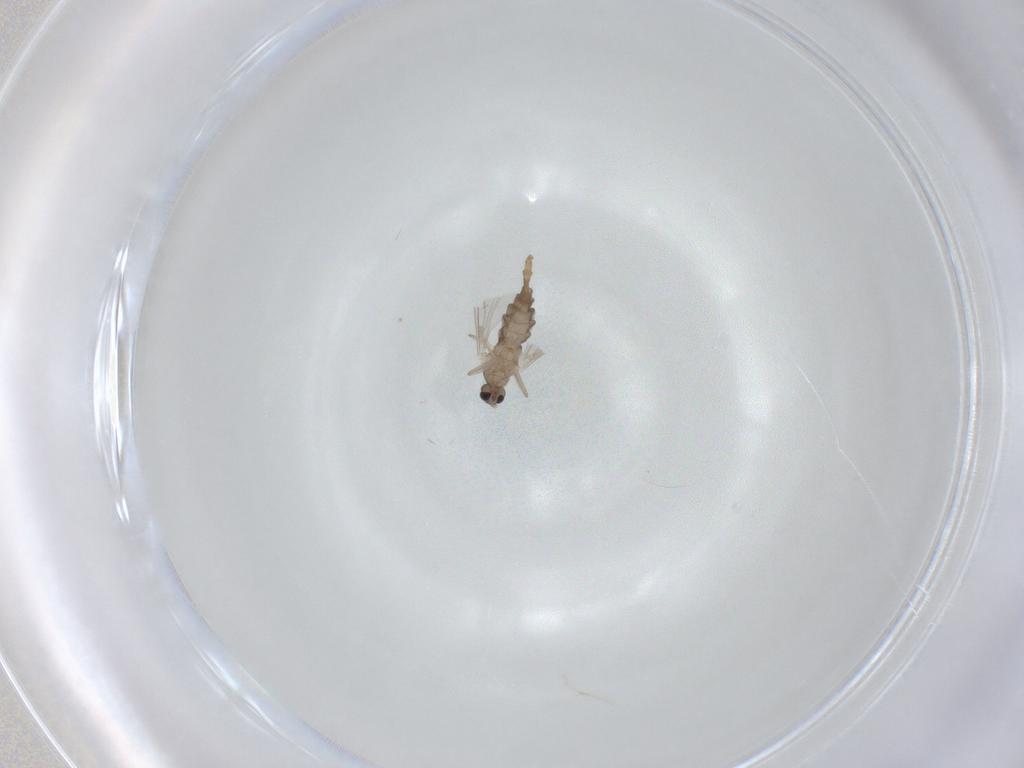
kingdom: Animalia
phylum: Arthropoda
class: Insecta
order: Diptera
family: Cecidomyiidae
